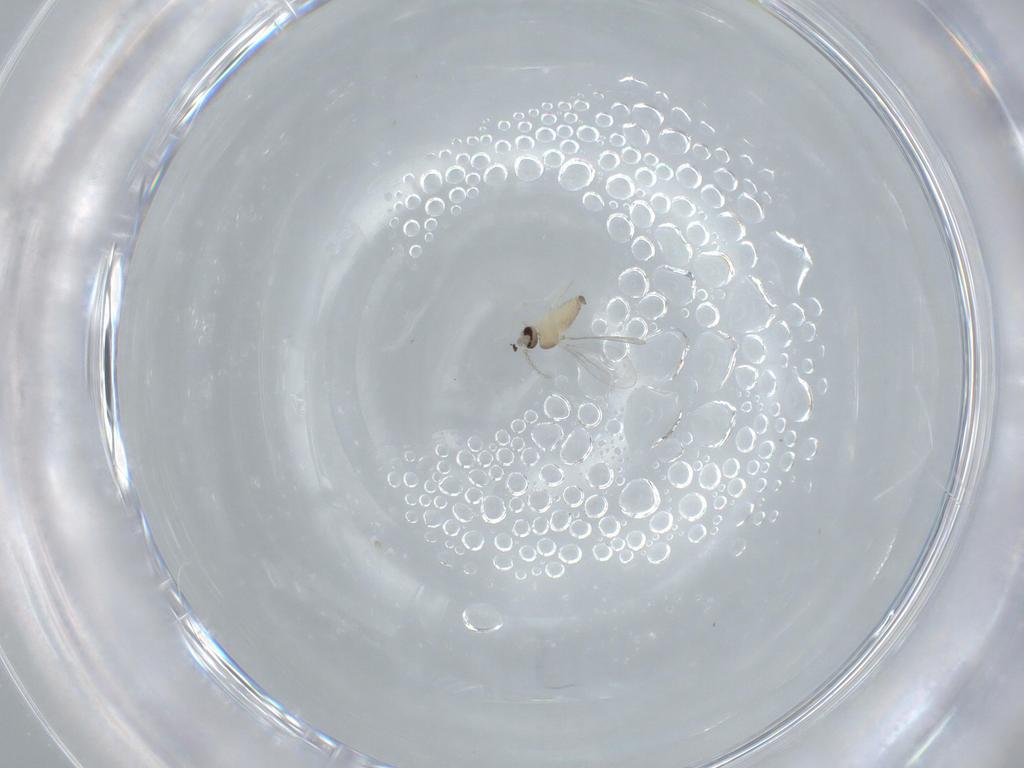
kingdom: Animalia
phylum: Arthropoda
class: Insecta
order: Diptera
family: Cecidomyiidae
